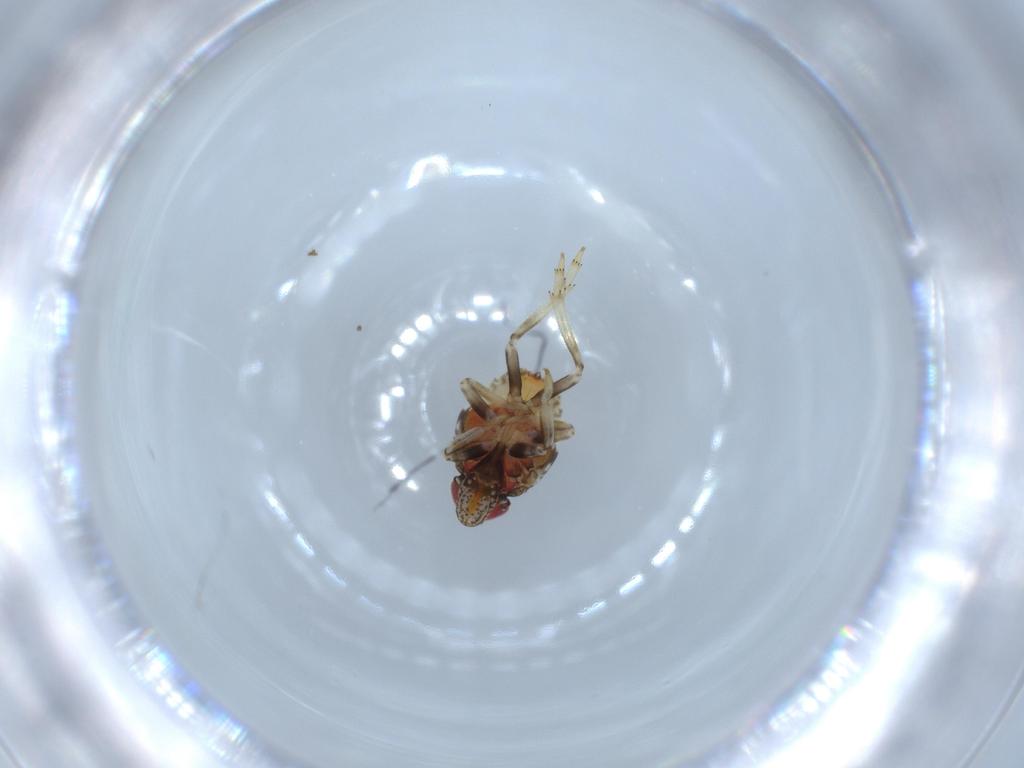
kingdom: Animalia
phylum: Arthropoda
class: Insecta
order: Hemiptera
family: Issidae
